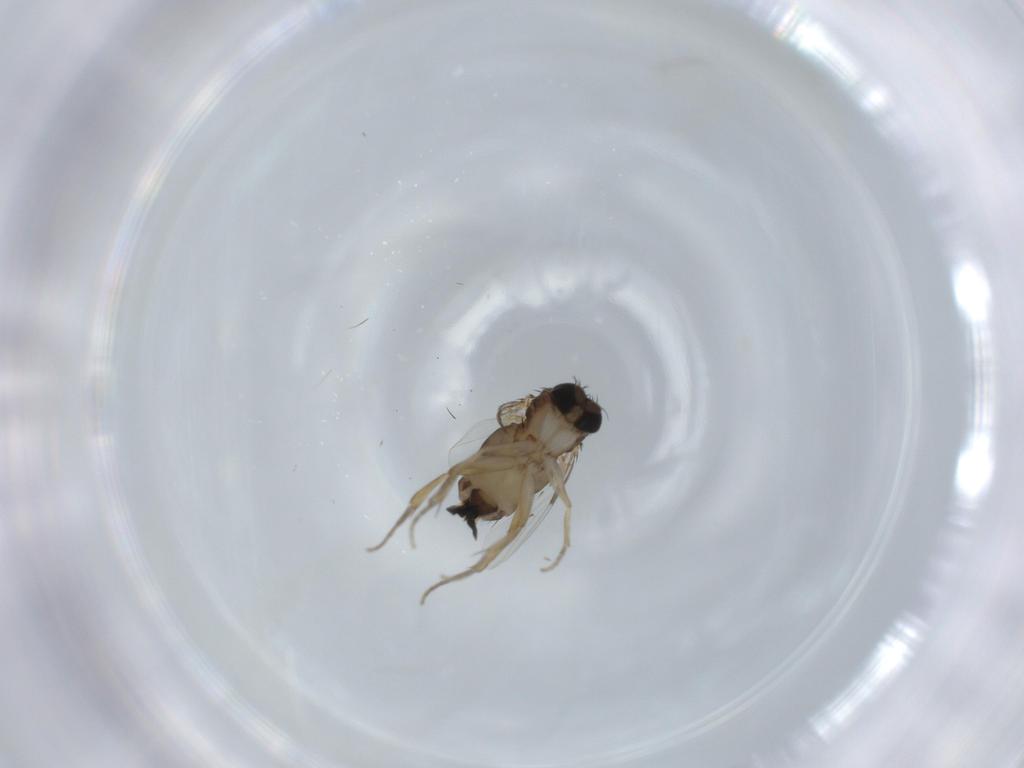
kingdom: Animalia
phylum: Arthropoda
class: Insecta
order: Diptera
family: Phoridae
